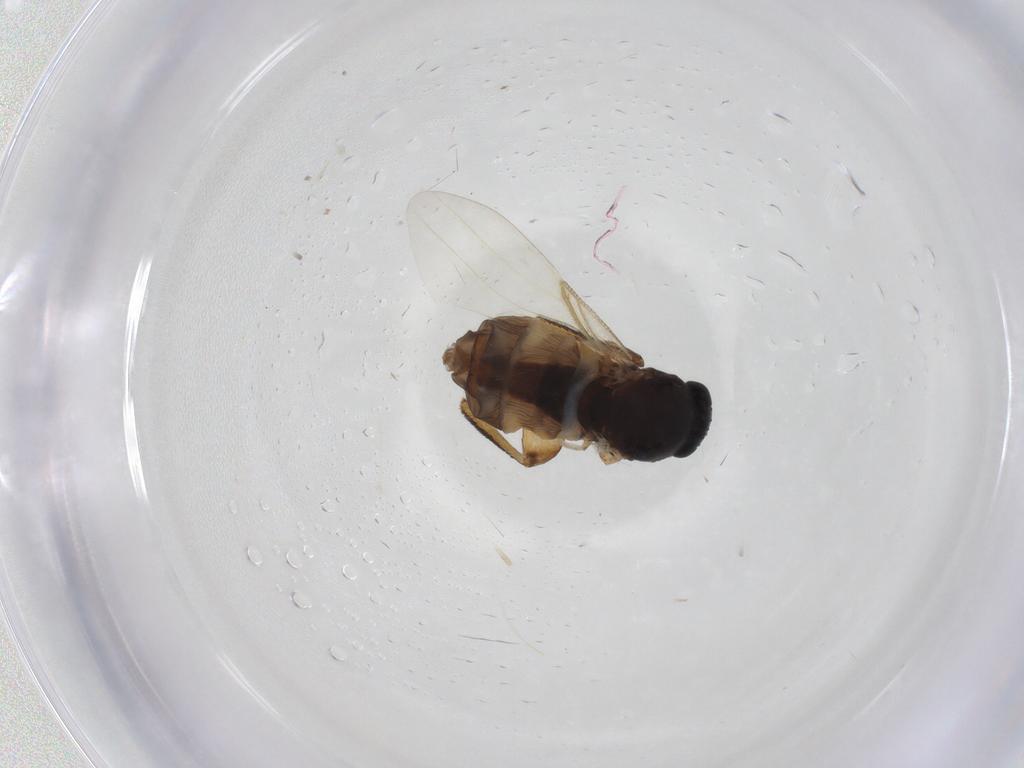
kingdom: Animalia
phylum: Arthropoda
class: Insecta
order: Diptera
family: Phoridae
